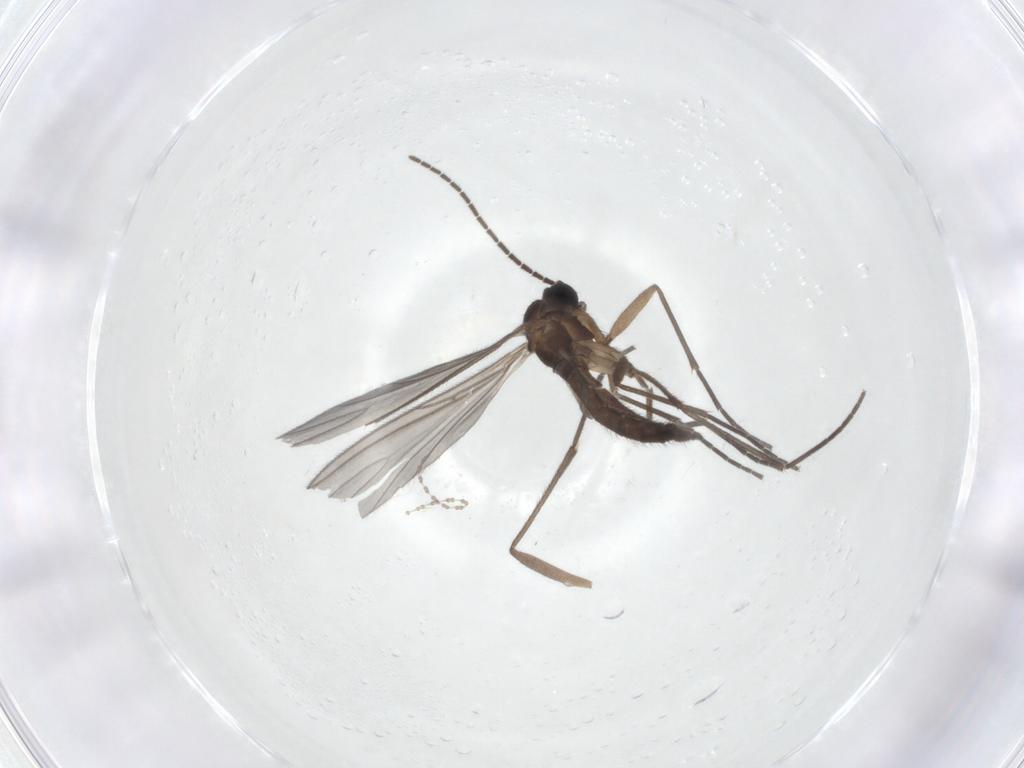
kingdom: Animalia
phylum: Arthropoda
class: Insecta
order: Diptera
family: Sciaridae
